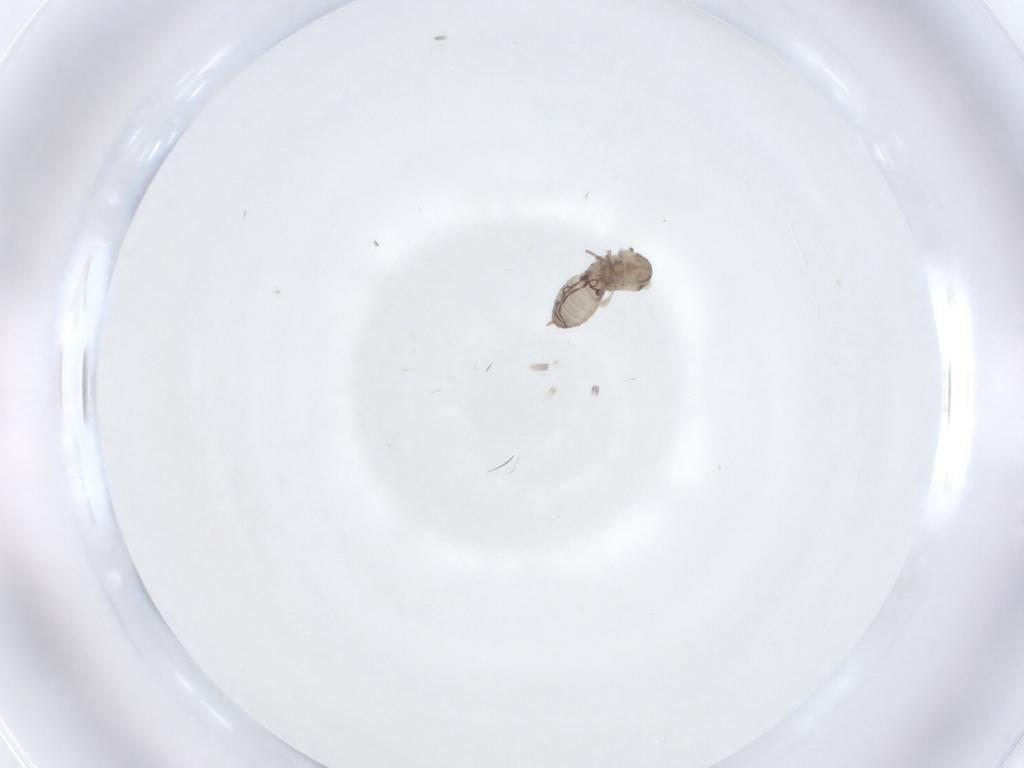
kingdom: Animalia
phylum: Arthropoda
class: Insecta
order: Diptera
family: Psychodidae
